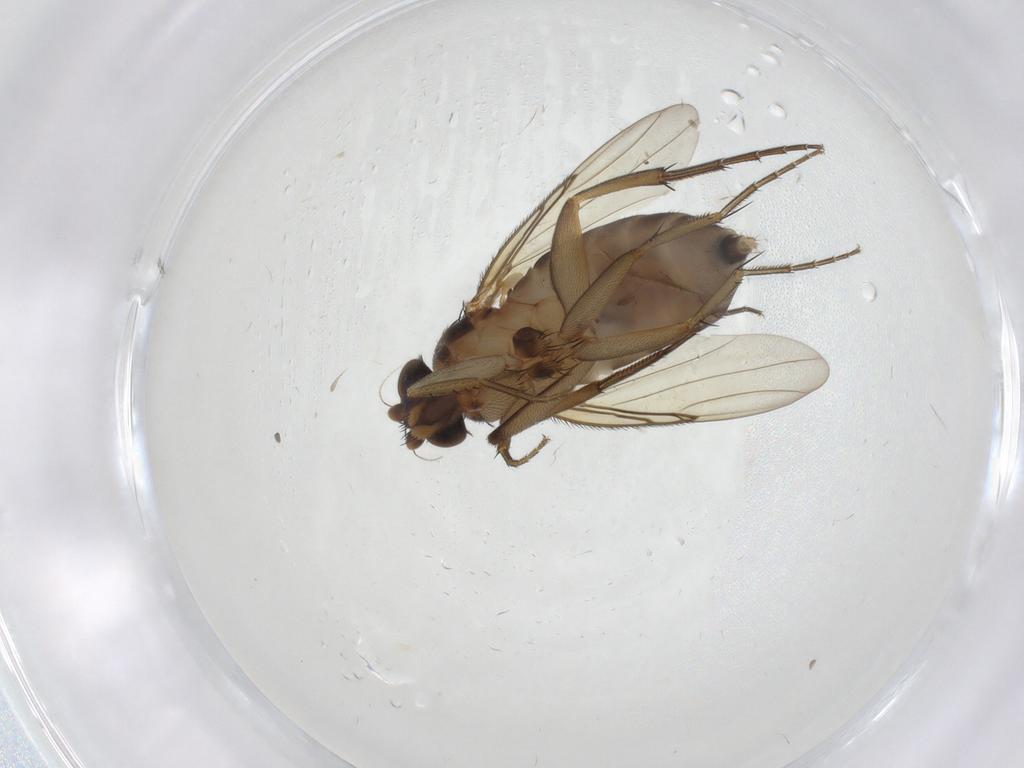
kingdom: Animalia
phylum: Arthropoda
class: Insecta
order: Diptera
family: Phoridae
